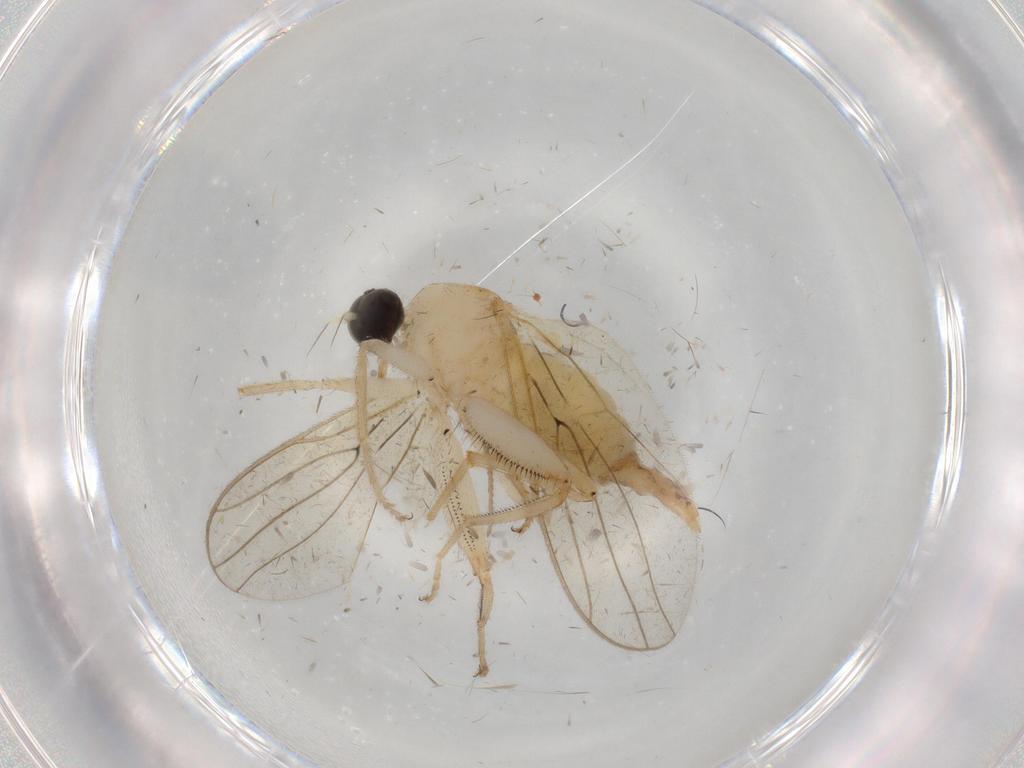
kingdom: Animalia
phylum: Arthropoda
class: Insecta
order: Diptera
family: Hybotidae
